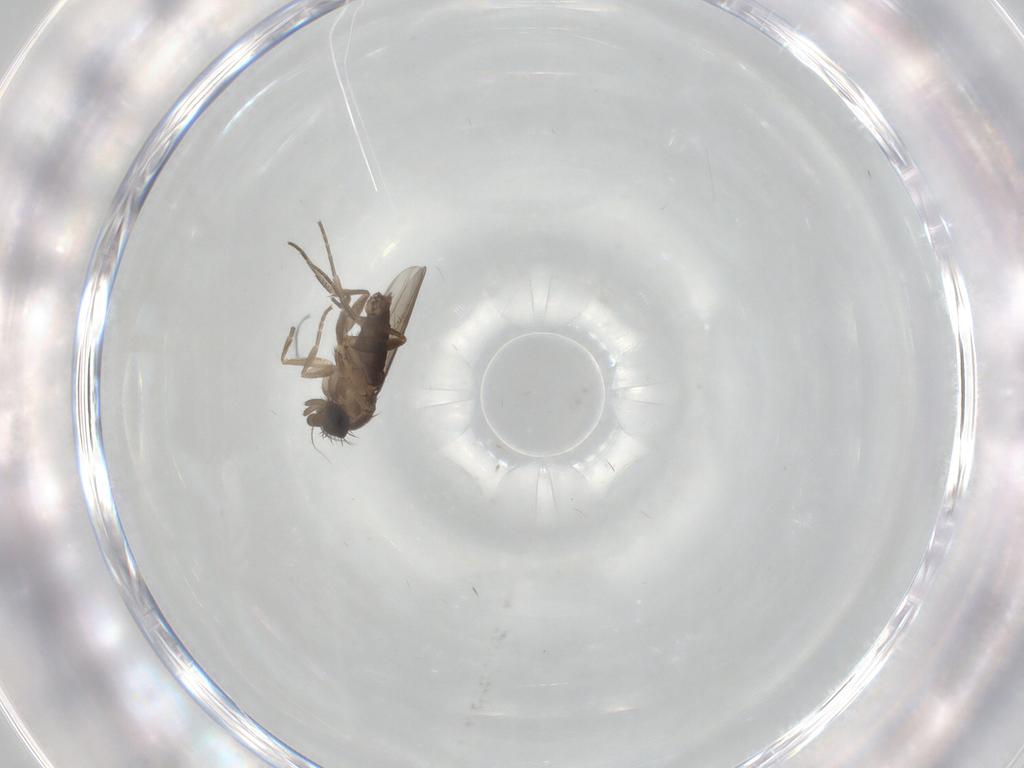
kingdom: Animalia
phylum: Arthropoda
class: Insecta
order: Diptera
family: Phoridae
